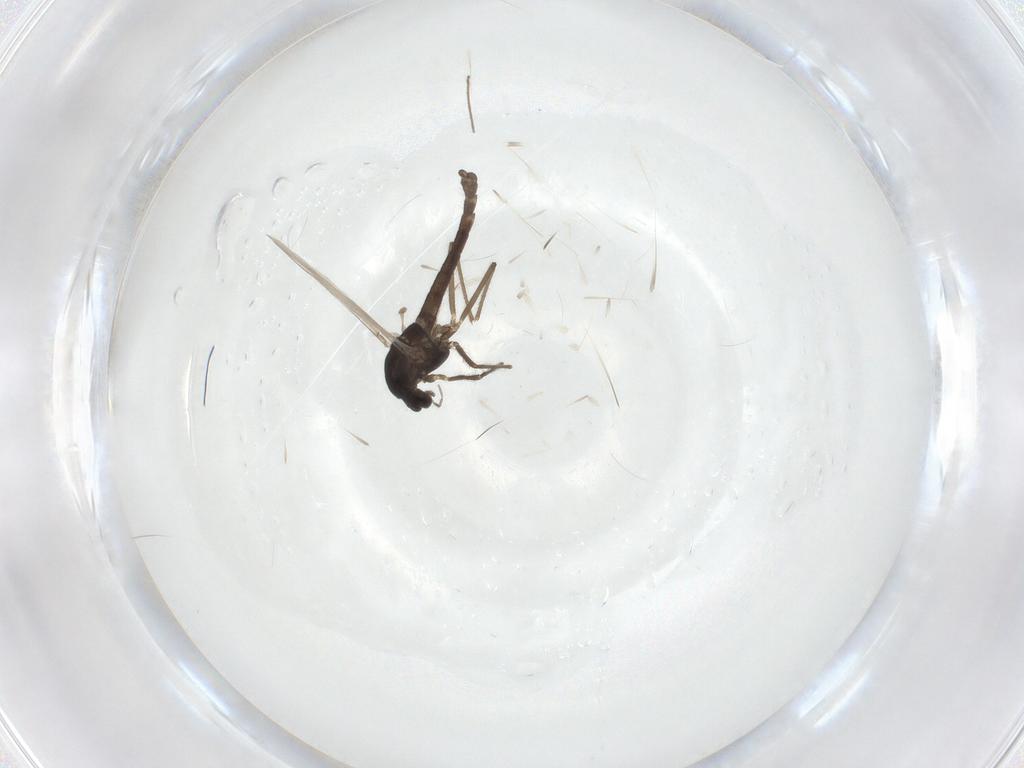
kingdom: Animalia
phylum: Arthropoda
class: Insecta
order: Diptera
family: Chironomidae
